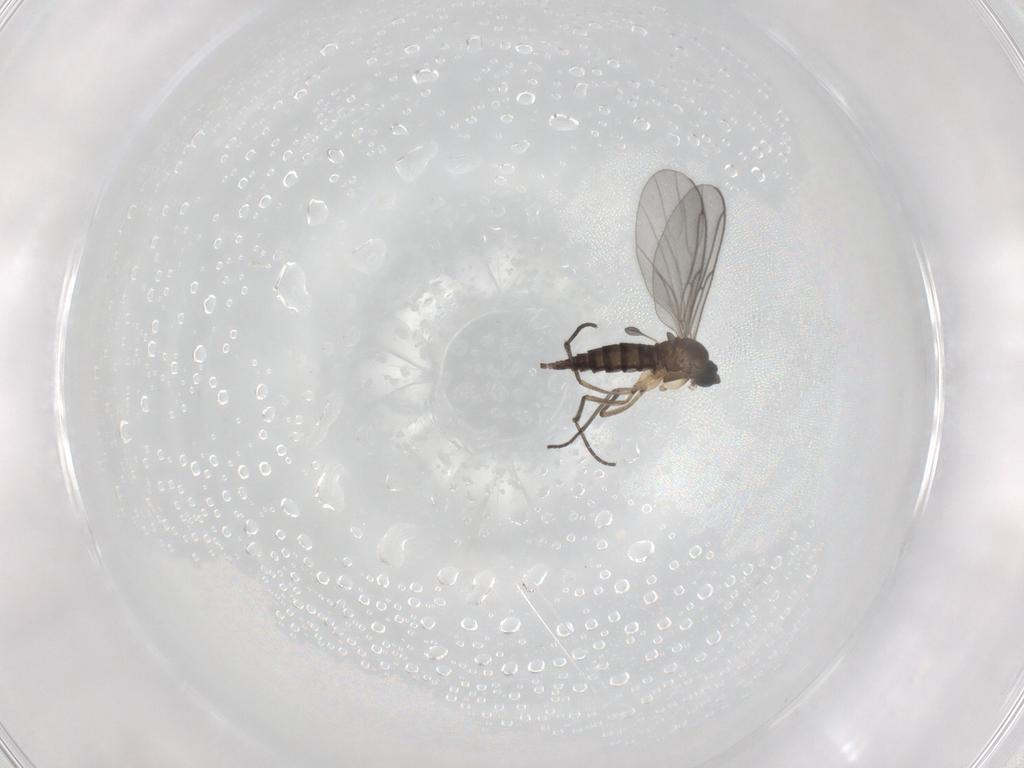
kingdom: Animalia
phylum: Arthropoda
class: Insecta
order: Diptera
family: Sciaridae
